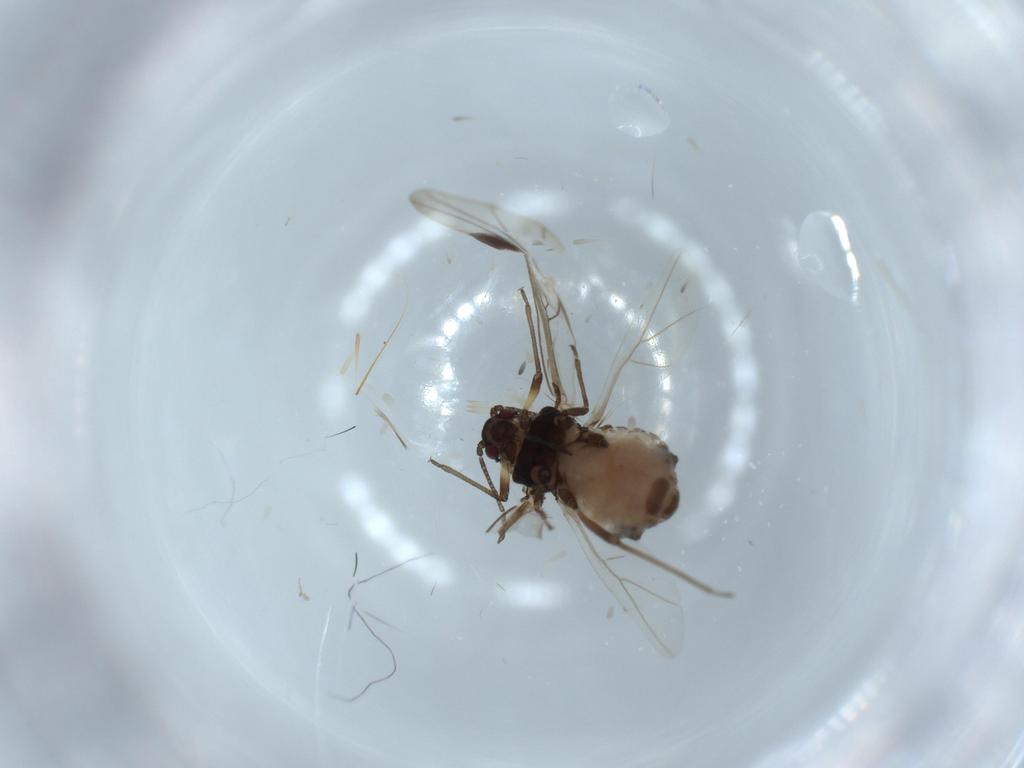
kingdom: Animalia
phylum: Arthropoda
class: Insecta
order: Hemiptera
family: Aphididae
